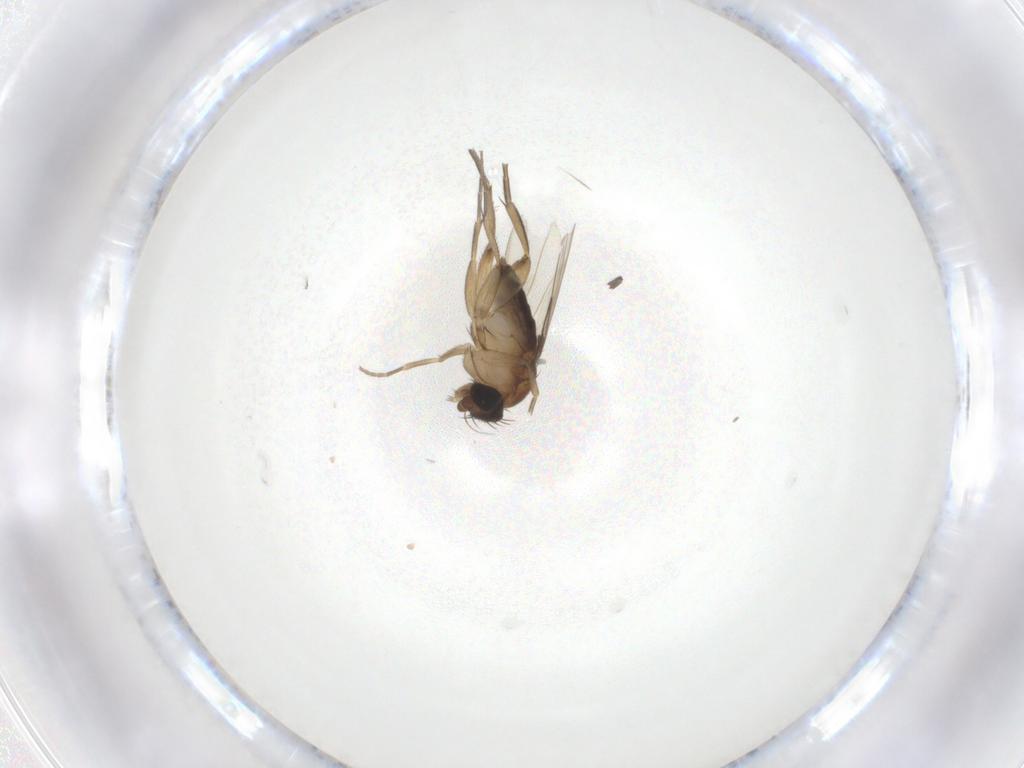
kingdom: Animalia
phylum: Arthropoda
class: Insecta
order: Diptera
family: Phoridae
